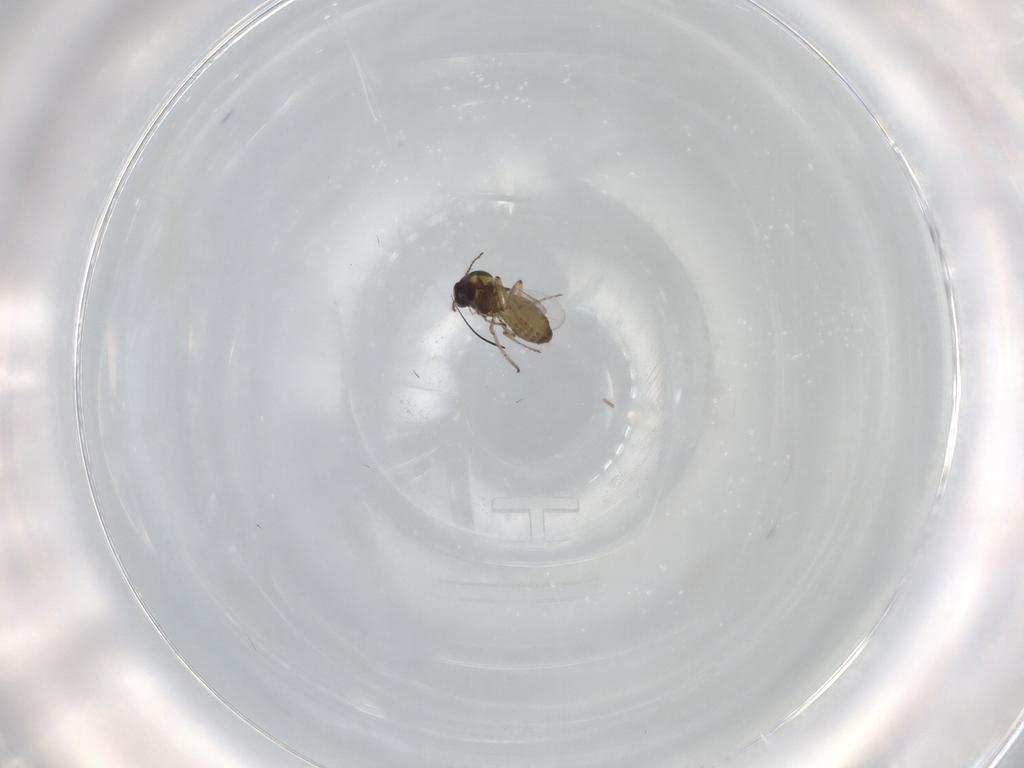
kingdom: Animalia
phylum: Arthropoda
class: Insecta
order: Diptera
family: Ceratopogonidae
